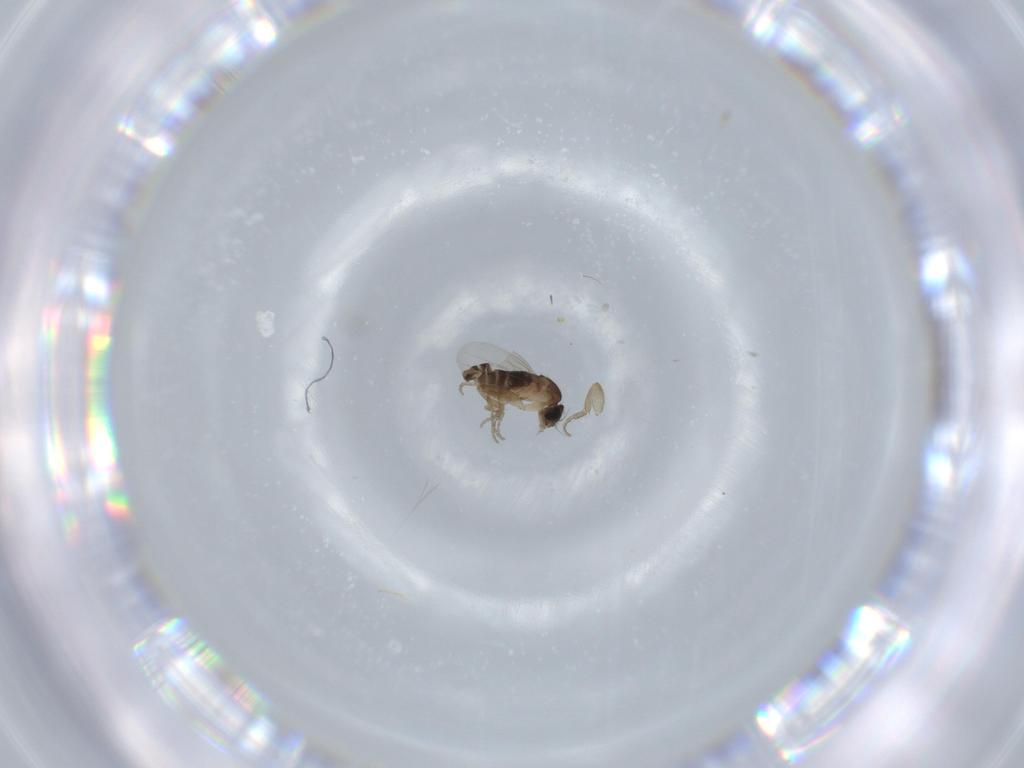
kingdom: Animalia
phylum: Arthropoda
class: Insecta
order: Diptera
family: Phoridae
